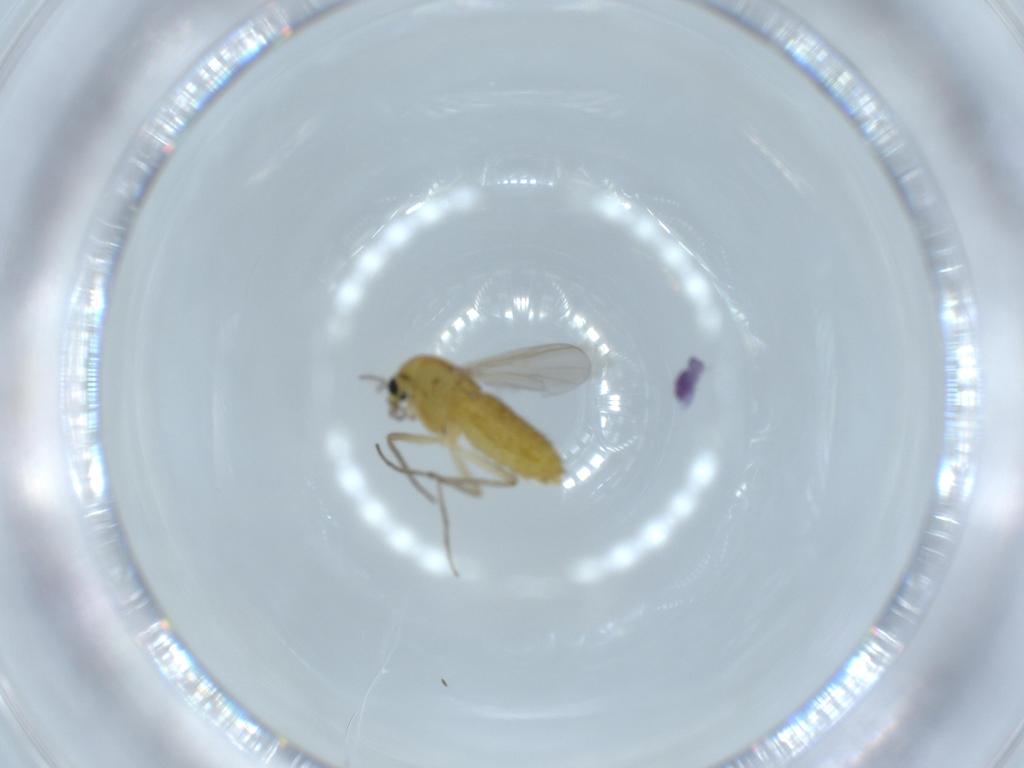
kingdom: Animalia
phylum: Arthropoda
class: Insecta
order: Diptera
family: Chironomidae
